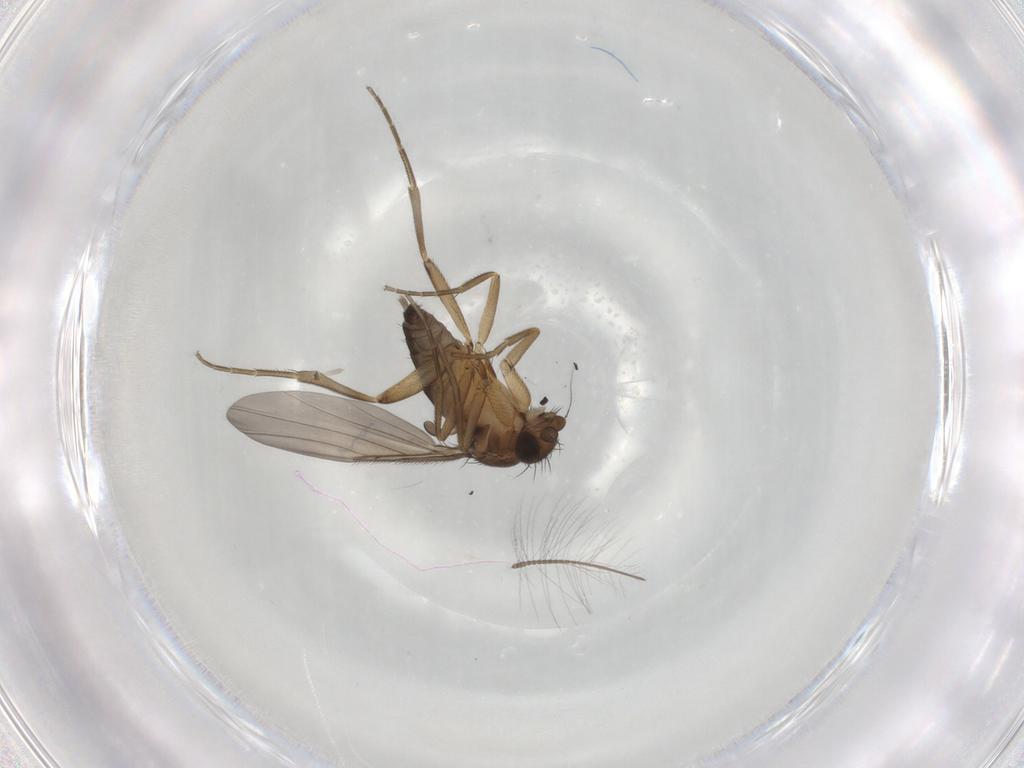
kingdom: Animalia
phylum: Arthropoda
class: Insecta
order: Diptera
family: Phoridae
